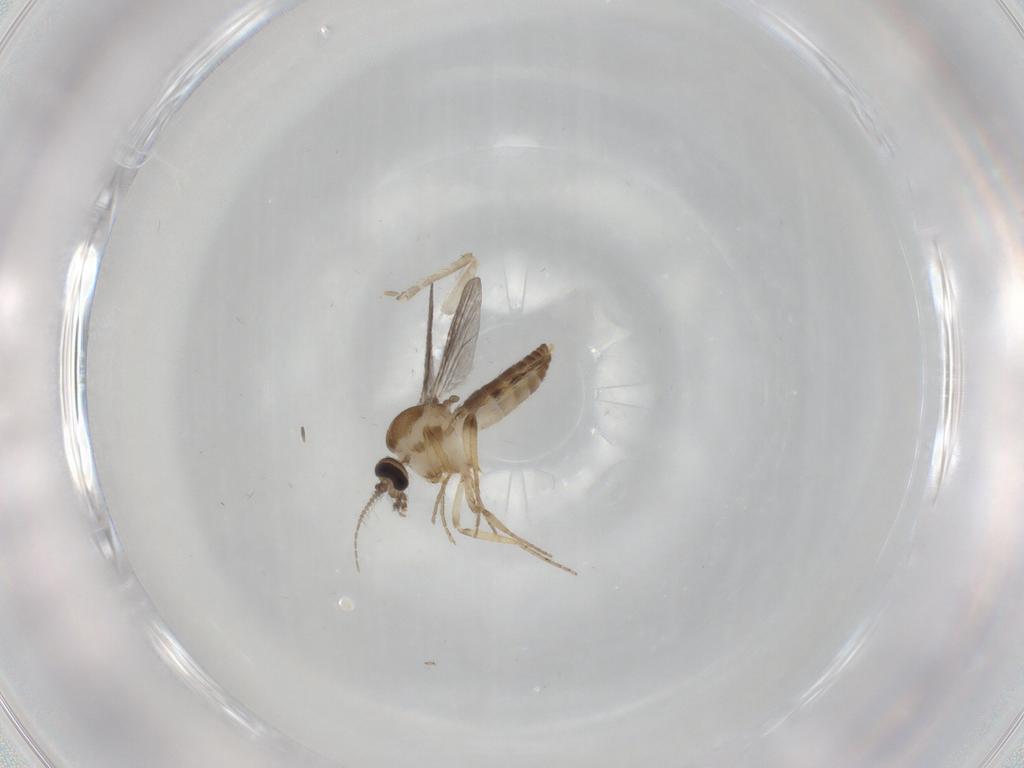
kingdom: Animalia
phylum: Arthropoda
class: Insecta
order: Diptera
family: Ceratopogonidae
